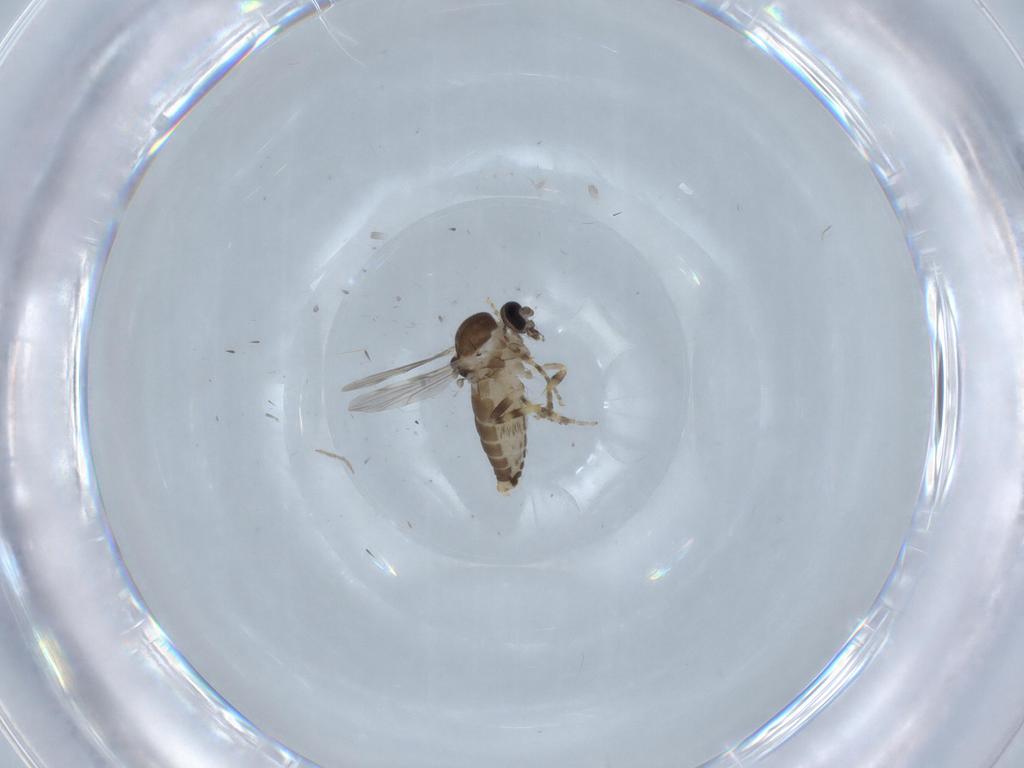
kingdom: Animalia
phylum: Arthropoda
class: Insecta
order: Diptera
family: Ceratopogonidae
